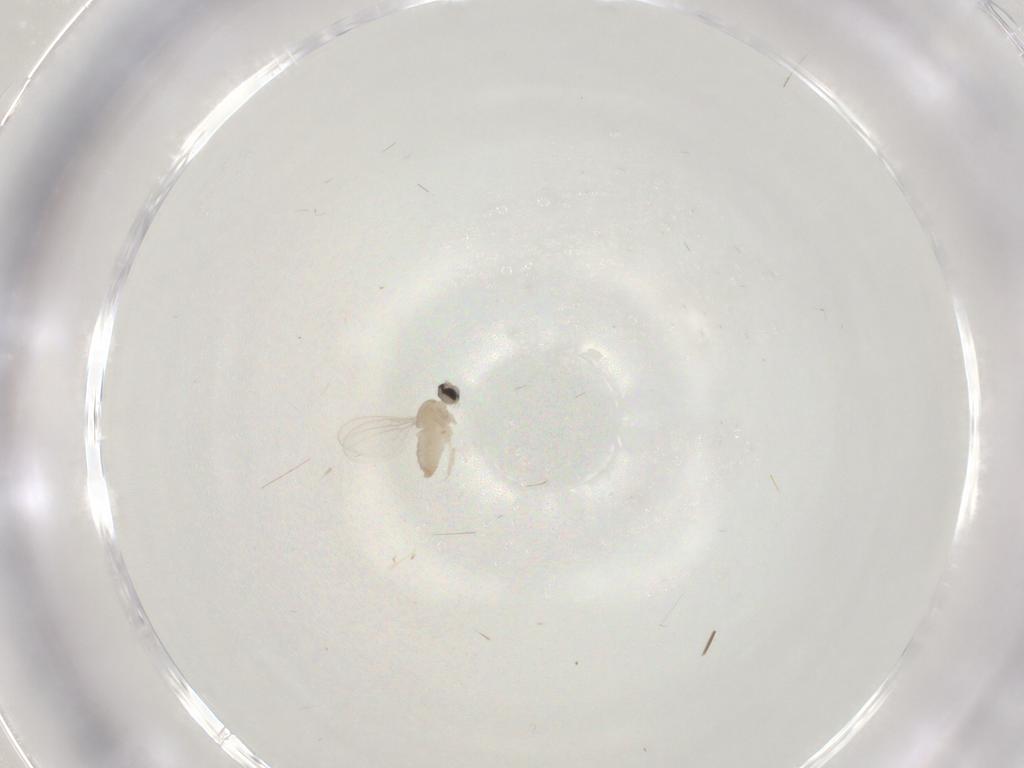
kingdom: Animalia
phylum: Arthropoda
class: Insecta
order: Diptera
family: Cecidomyiidae
